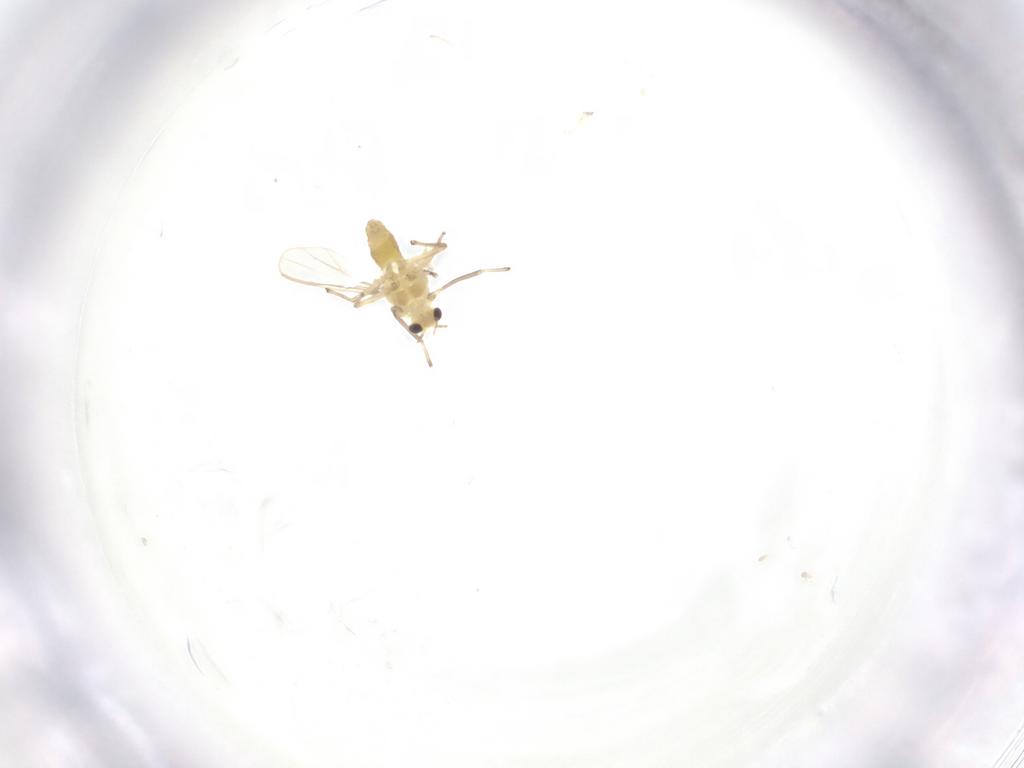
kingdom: Animalia
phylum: Arthropoda
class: Insecta
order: Diptera
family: Chironomidae
